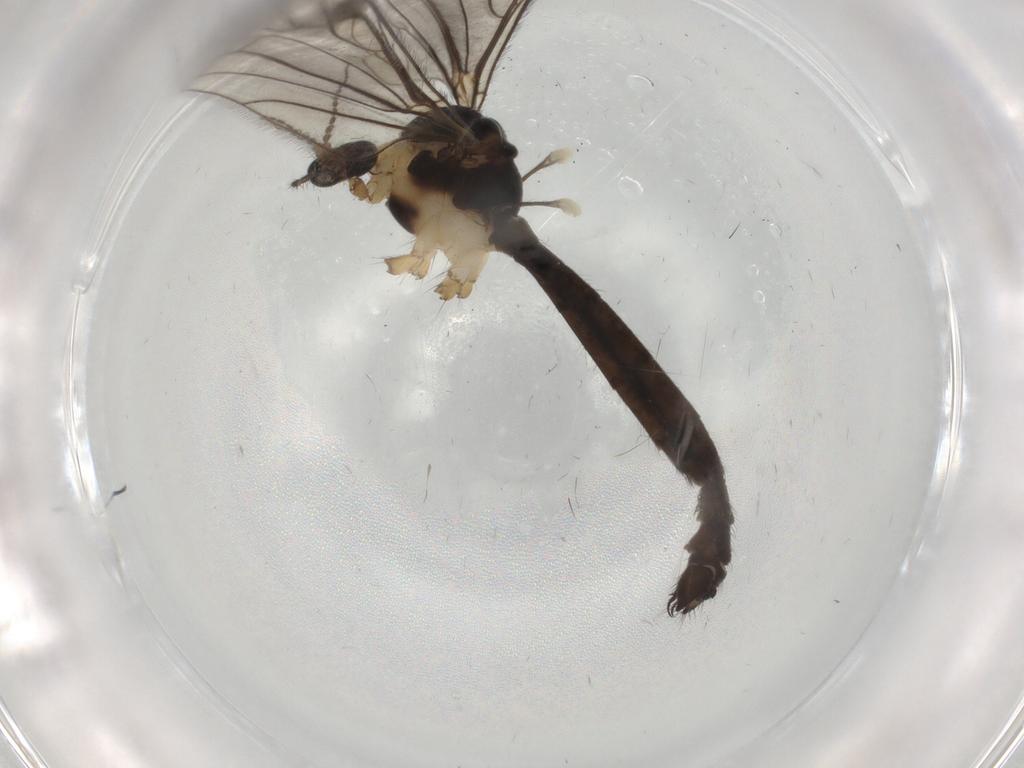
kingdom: Animalia
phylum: Arthropoda
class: Insecta
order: Diptera
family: Limoniidae
